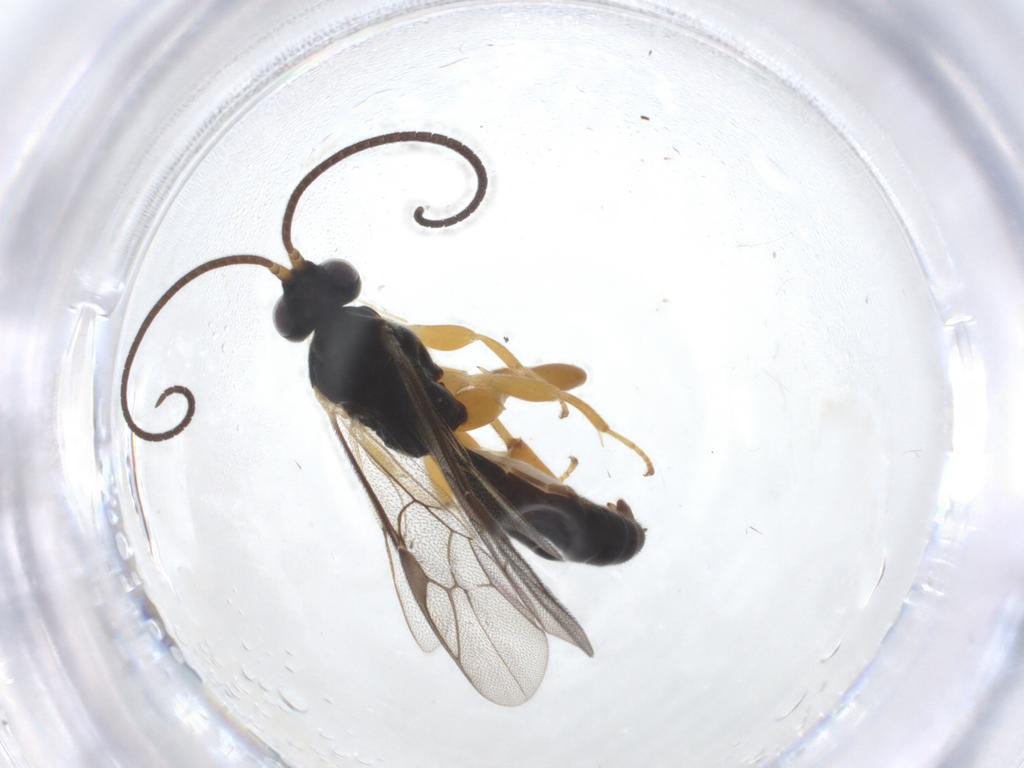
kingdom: Animalia
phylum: Arthropoda
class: Insecta
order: Hymenoptera
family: Ichneumonidae
